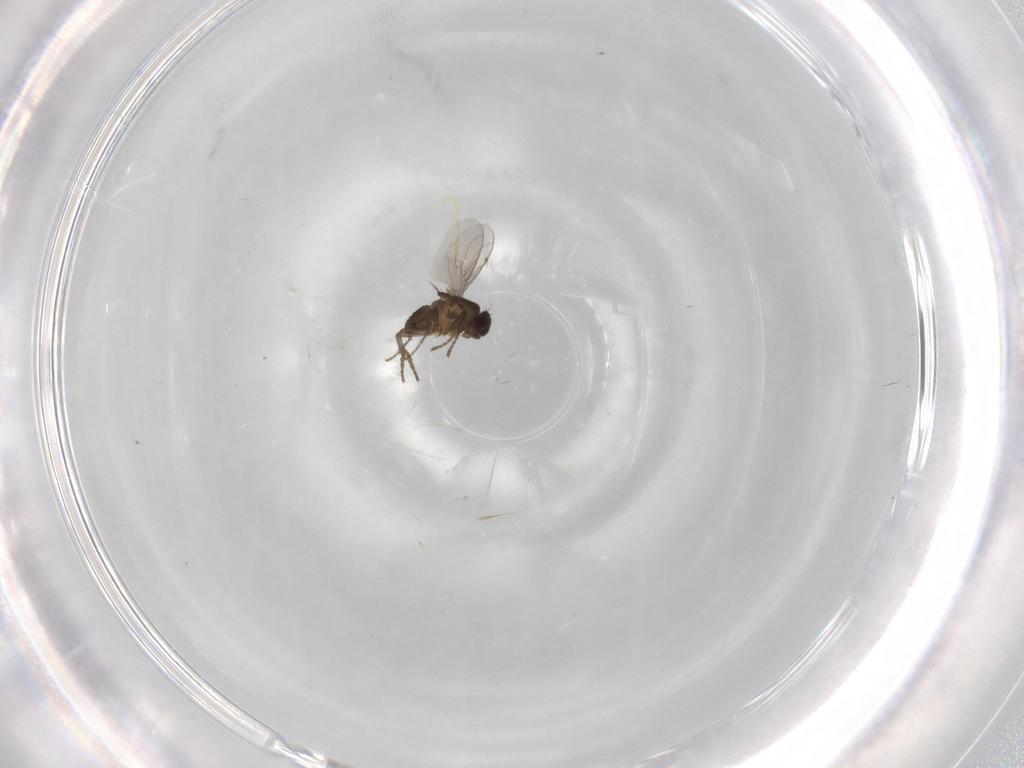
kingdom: Animalia
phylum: Arthropoda
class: Insecta
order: Diptera
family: Sphaeroceridae
